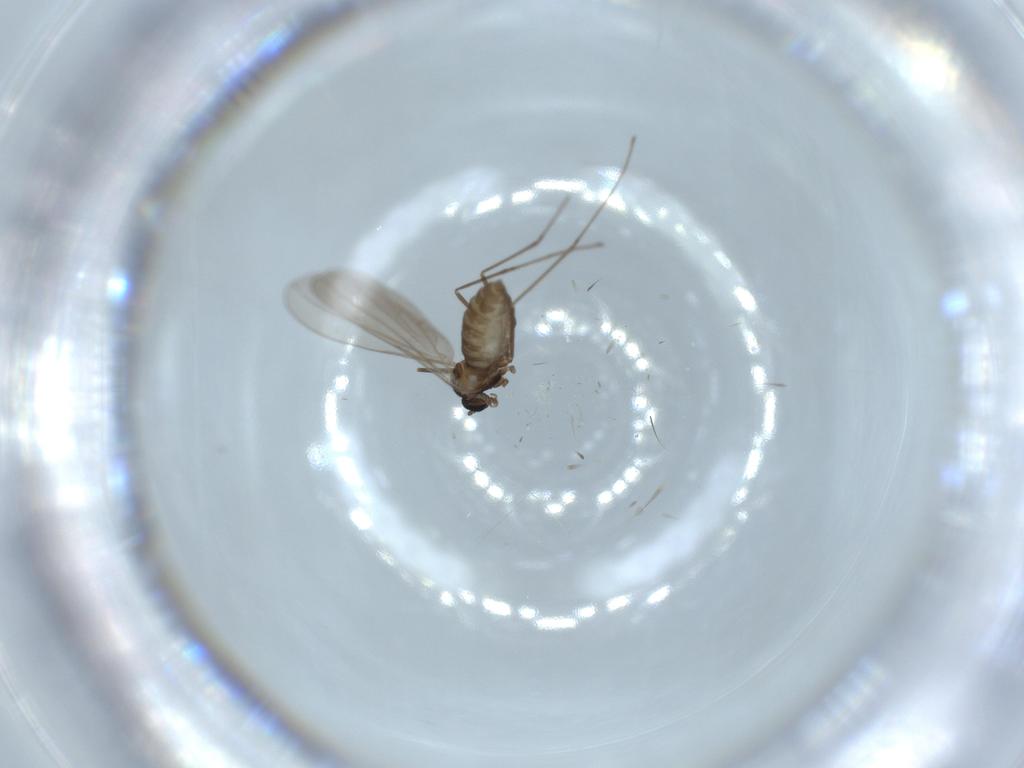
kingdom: Animalia
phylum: Arthropoda
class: Insecta
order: Diptera
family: Cecidomyiidae
